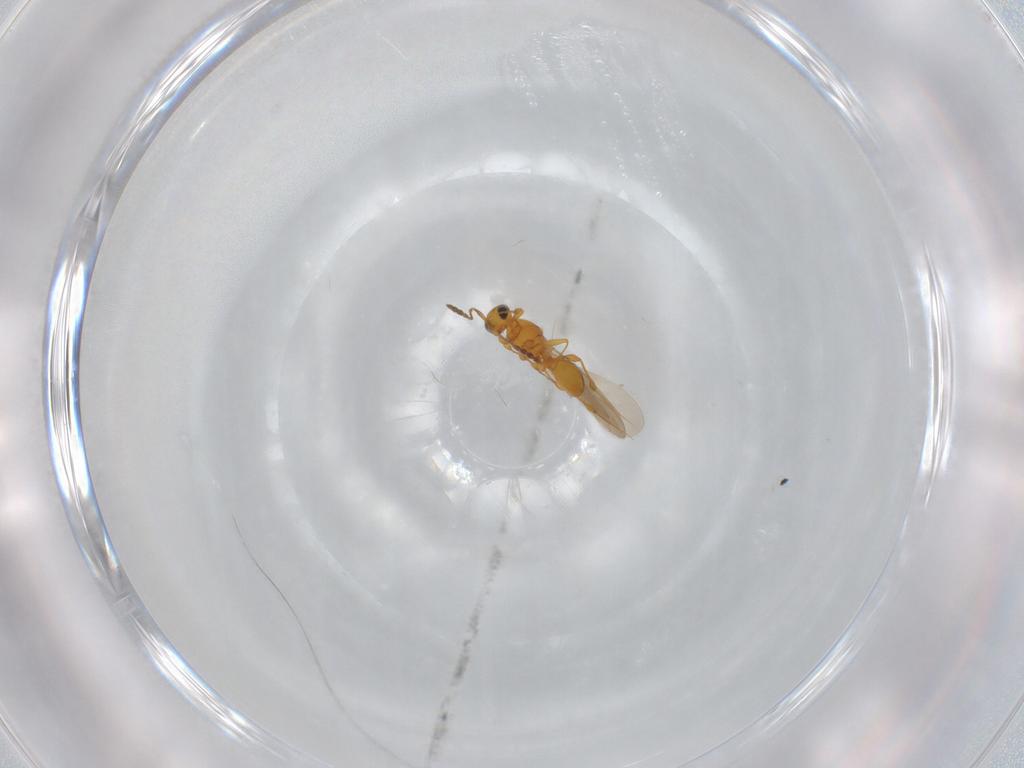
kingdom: Animalia
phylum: Arthropoda
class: Insecta
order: Hymenoptera
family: Platygastridae
